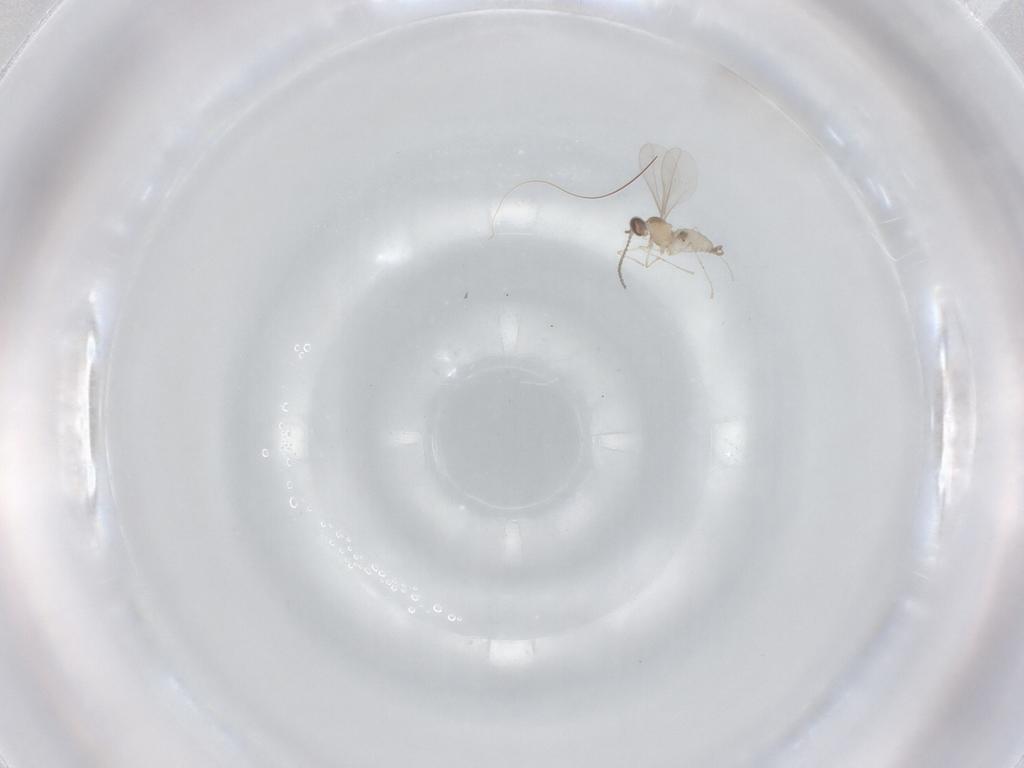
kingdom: Animalia
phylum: Arthropoda
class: Insecta
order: Diptera
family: Cecidomyiidae
